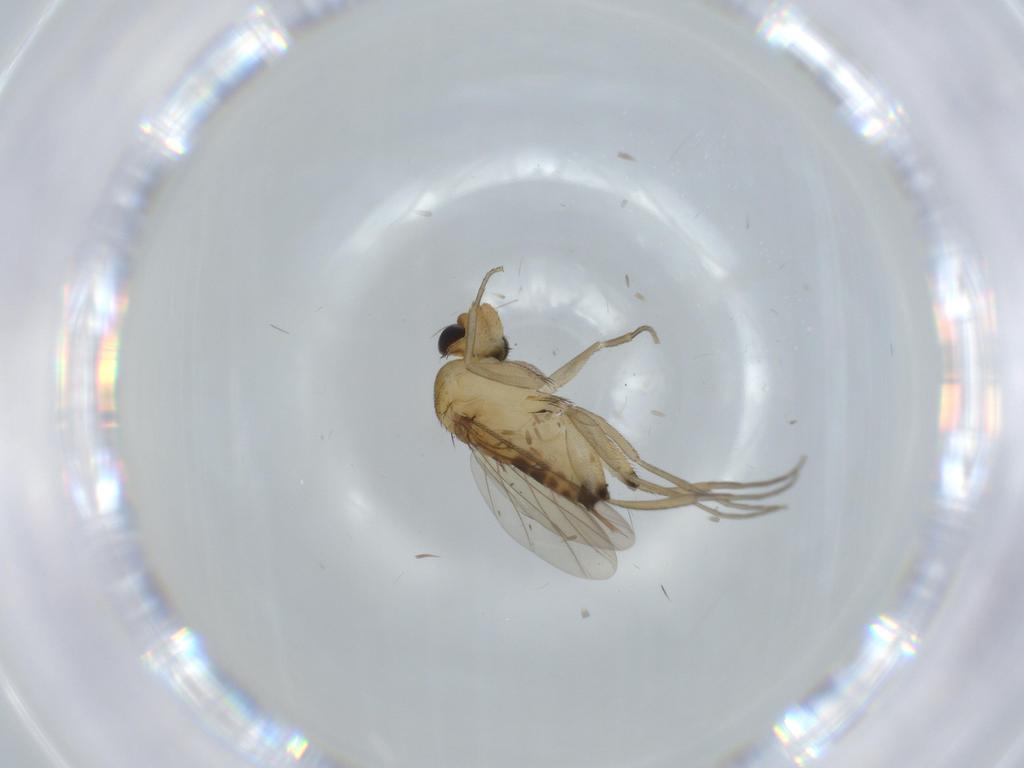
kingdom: Animalia
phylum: Arthropoda
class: Insecta
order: Diptera
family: Phoridae
